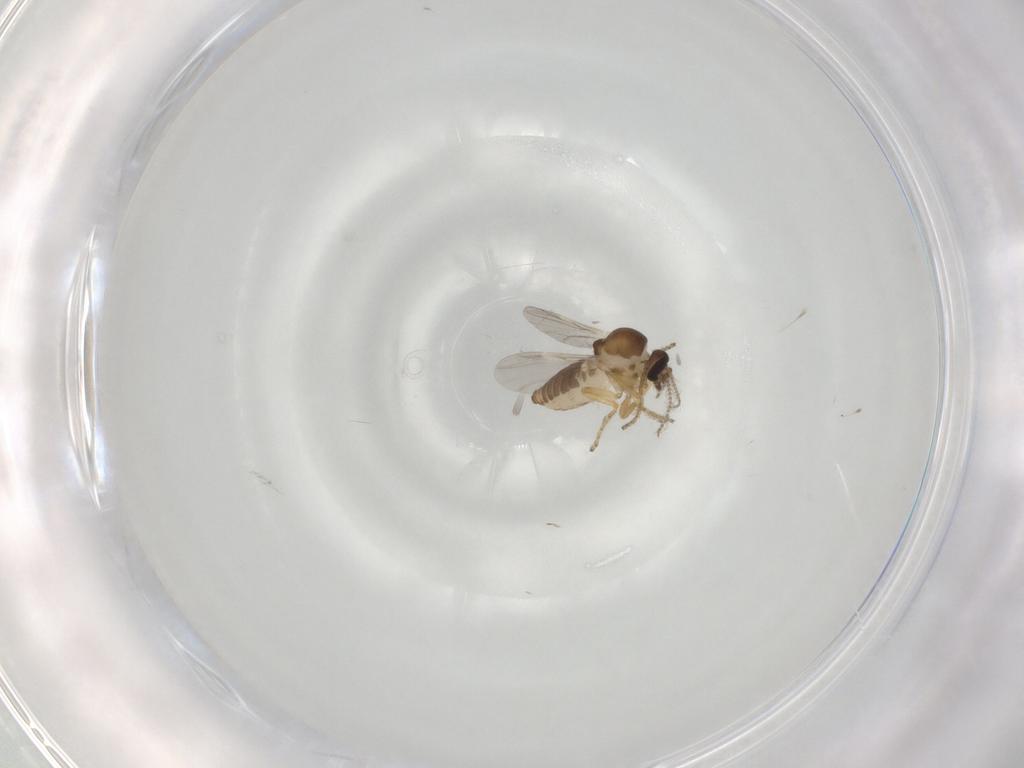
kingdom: Animalia
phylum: Arthropoda
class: Insecta
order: Diptera
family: Ceratopogonidae
